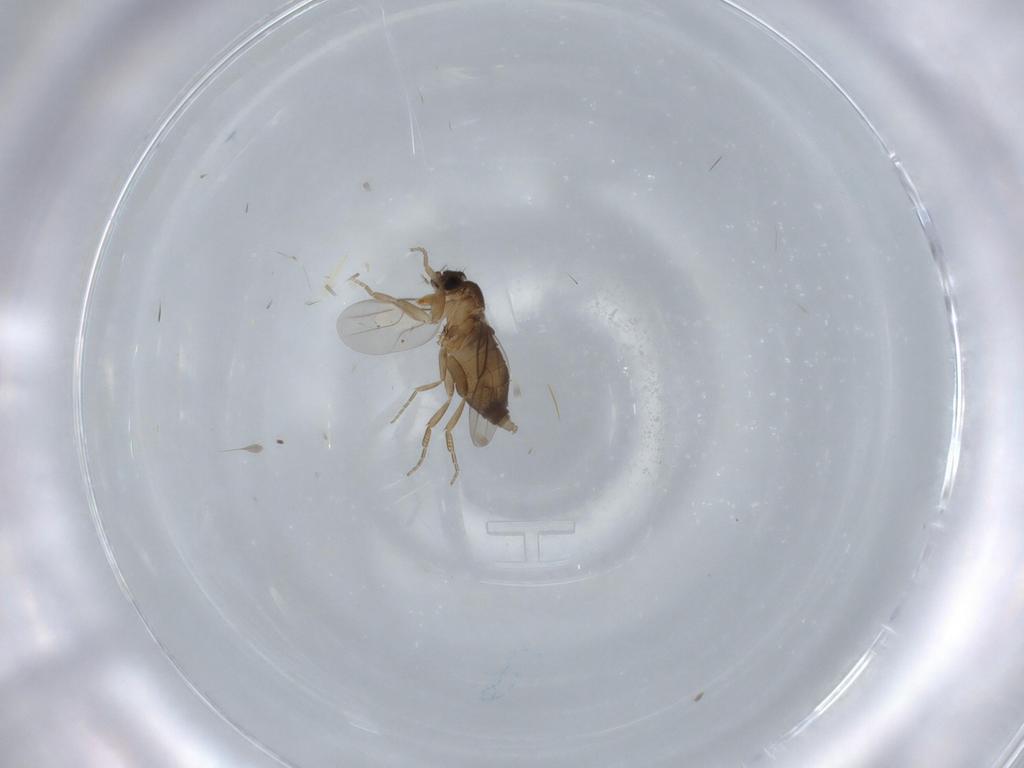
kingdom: Animalia
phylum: Arthropoda
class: Insecta
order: Diptera
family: Phoridae
